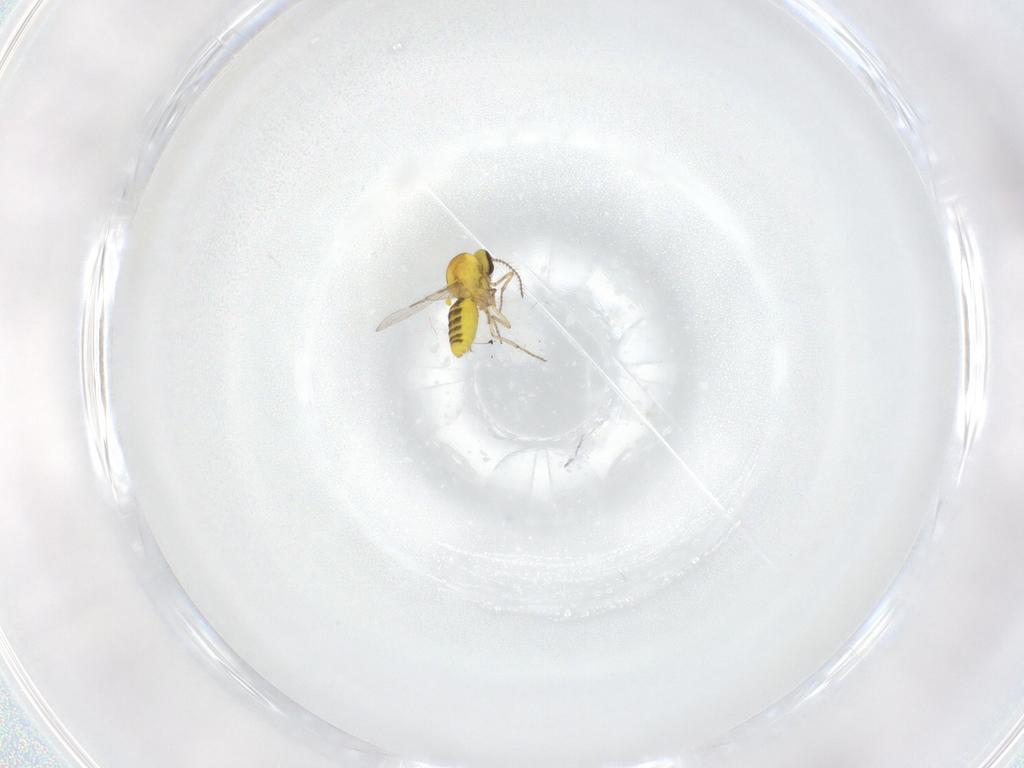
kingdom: Animalia
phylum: Arthropoda
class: Insecta
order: Diptera
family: Ceratopogonidae
